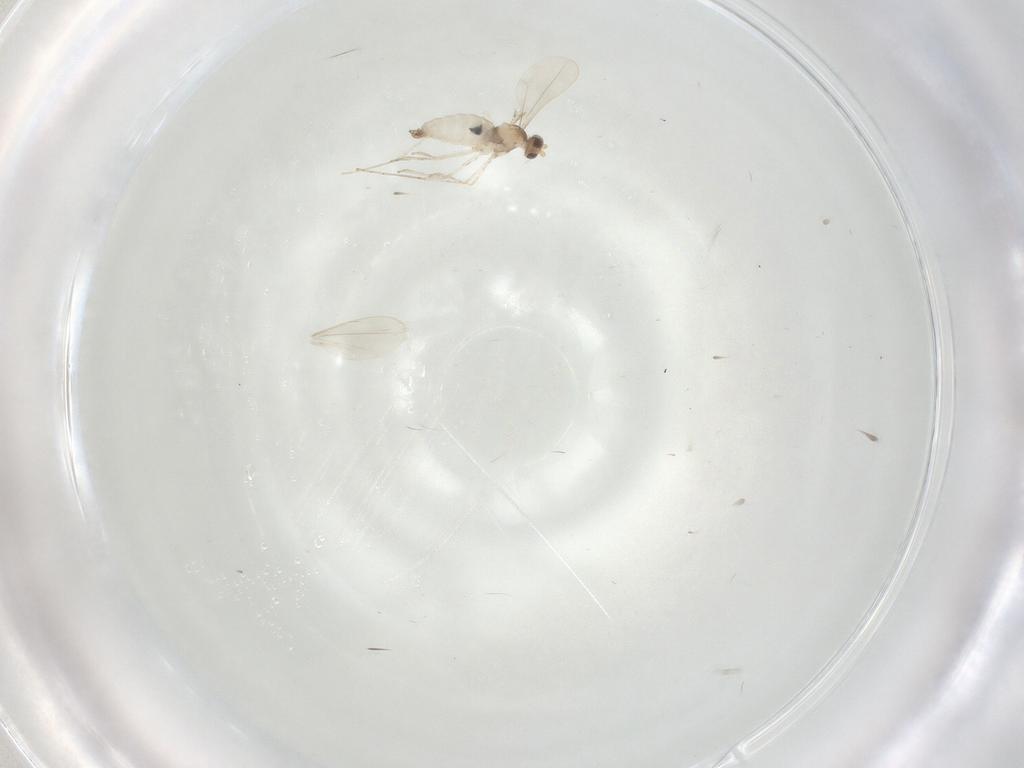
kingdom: Animalia
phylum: Arthropoda
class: Insecta
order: Diptera
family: Cecidomyiidae
